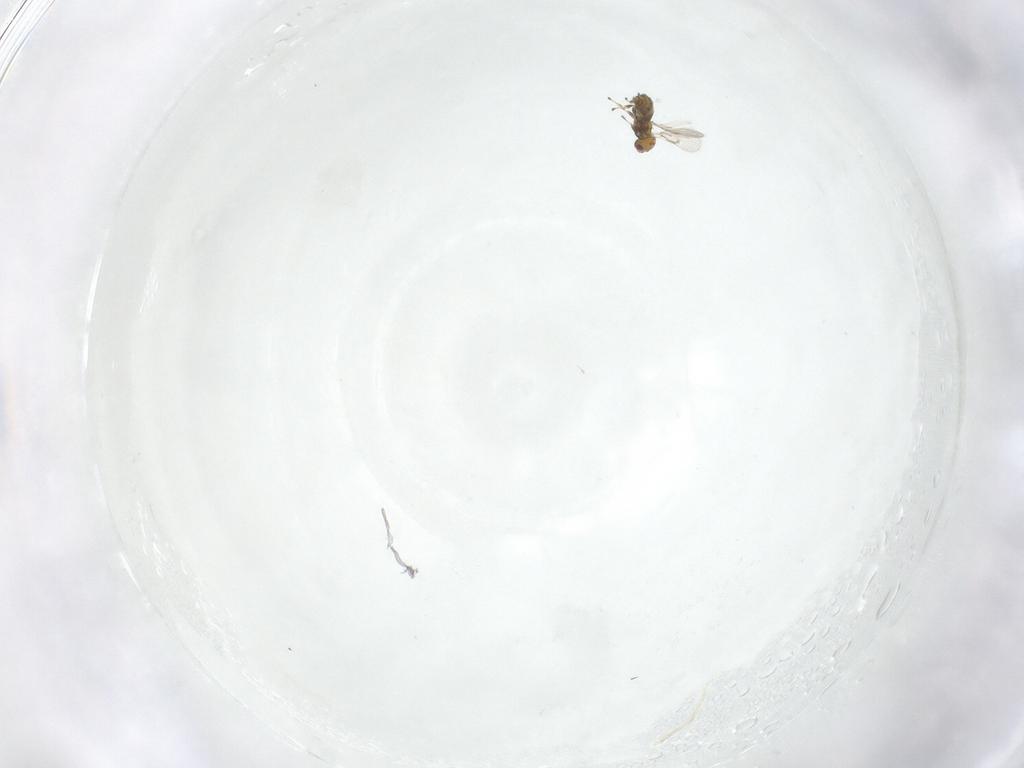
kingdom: Animalia
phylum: Arthropoda
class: Insecta
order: Hymenoptera
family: Trichogrammatidae
